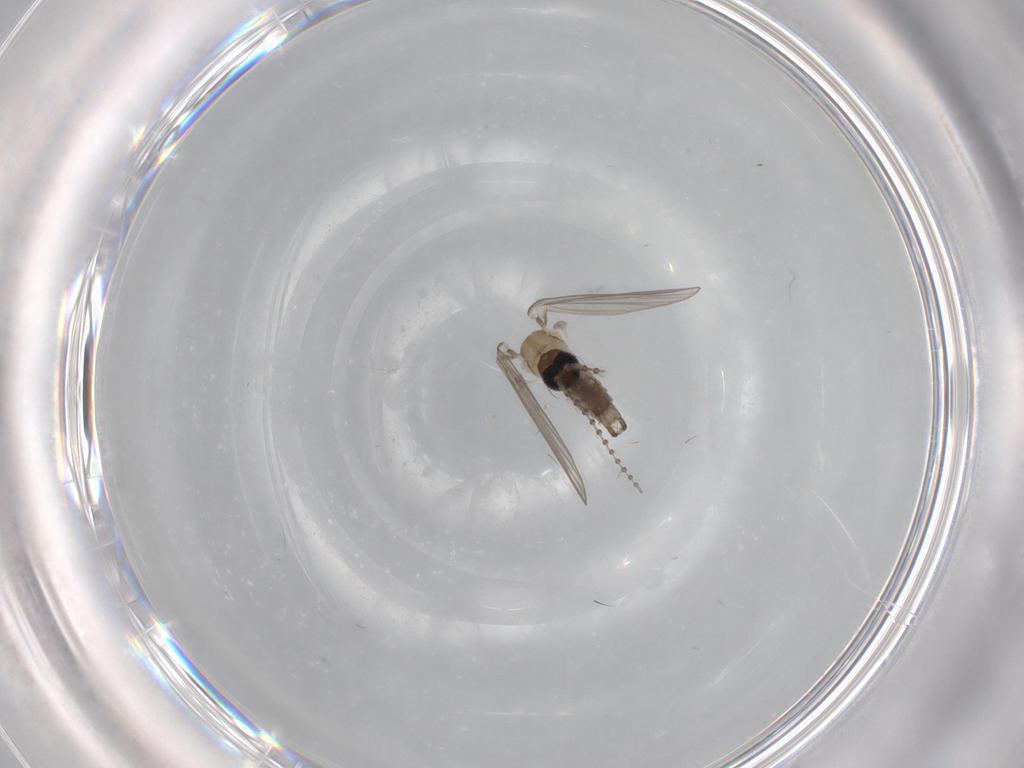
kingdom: Animalia
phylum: Arthropoda
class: Insecta
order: Diptera
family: Psychodidae
